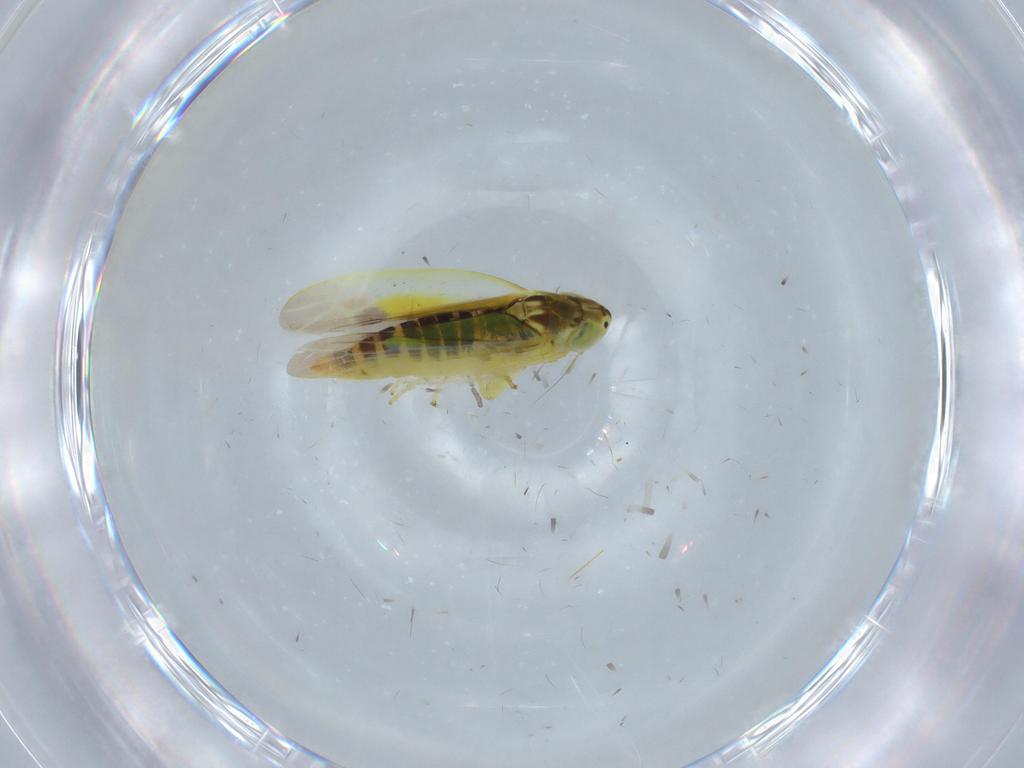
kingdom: Animalia
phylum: Arthropoda
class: Insecta
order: Hemiptera
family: Cicadellidae
